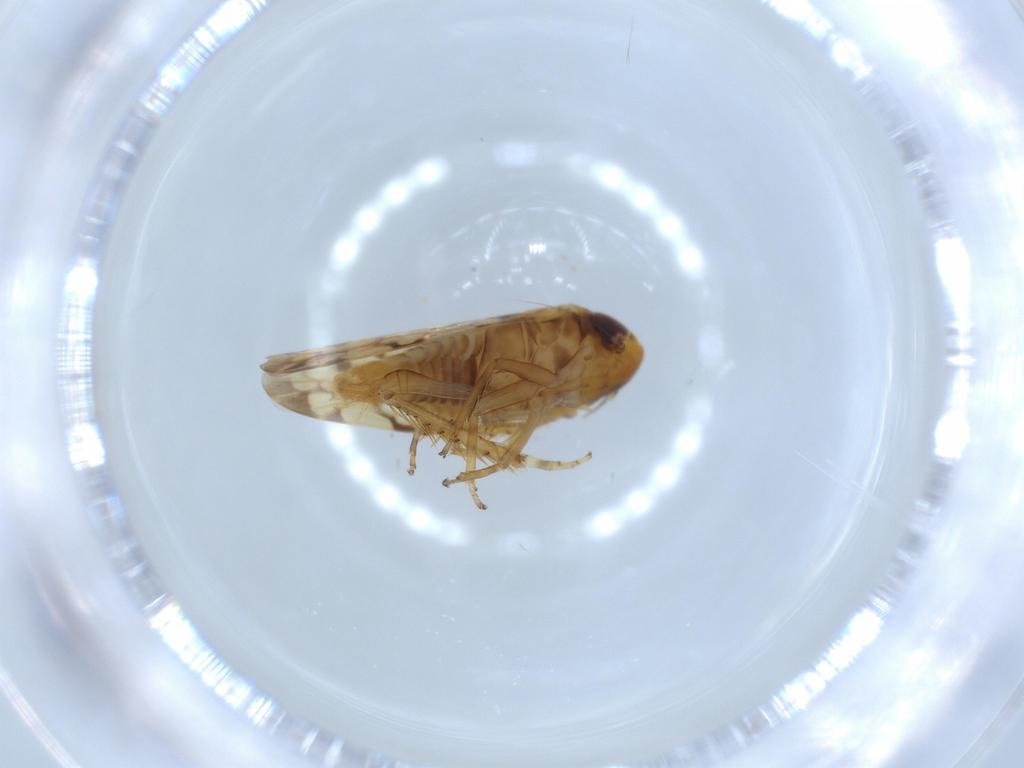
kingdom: Animalia
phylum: Arthropoda
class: Insecta
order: Hemiptera
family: Cicadellidae
